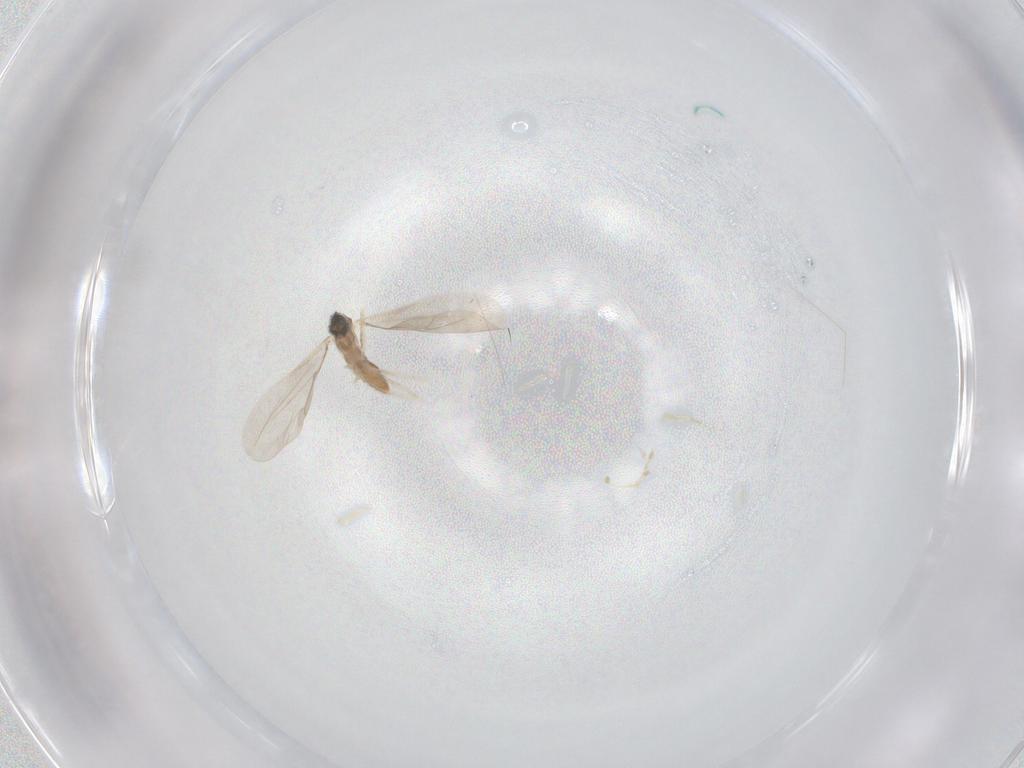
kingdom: Animalia
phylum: Arthropoda
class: Insecta
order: Diptera
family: Cecidomyiidae
